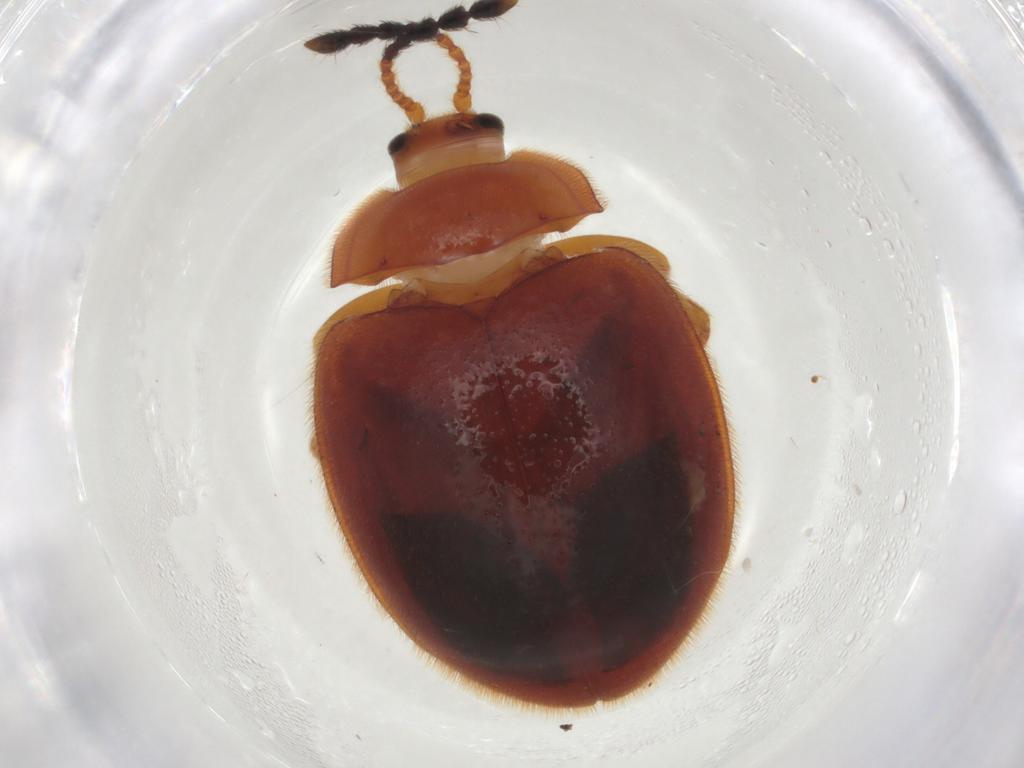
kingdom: Animalia
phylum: Arthropoda
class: Insecta
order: Coleoptera
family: Endomychidae
